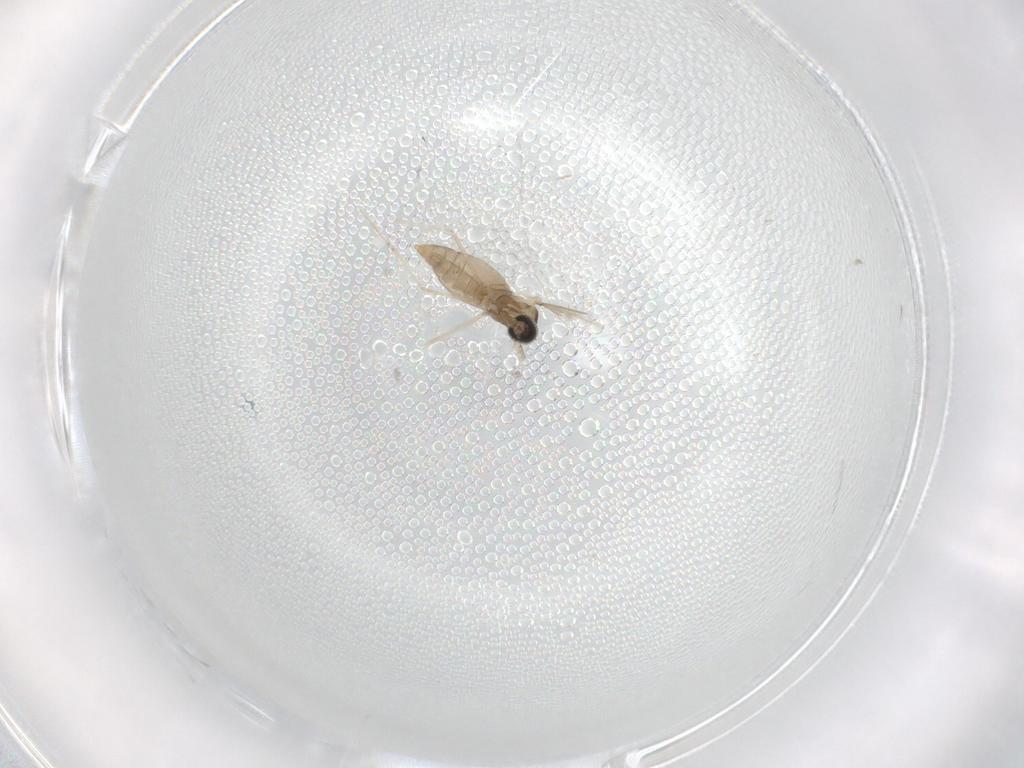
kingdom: Animalia
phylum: Arthropoda
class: Insecta
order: Diptera
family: Cecidomyiidae
